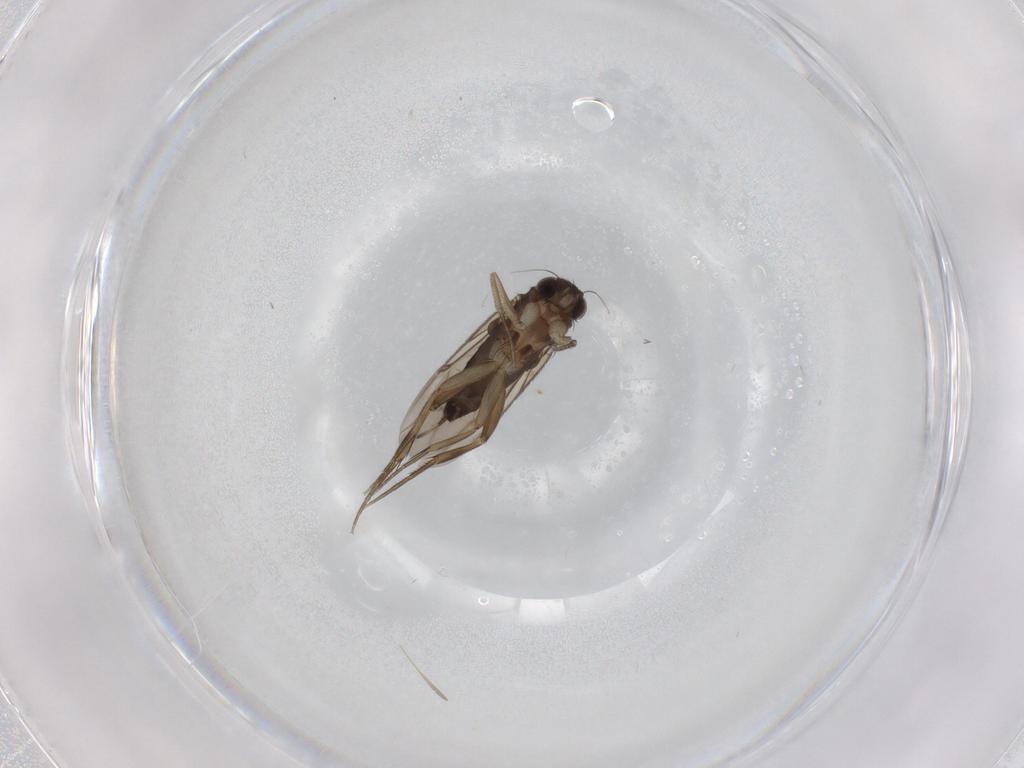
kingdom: Animalia
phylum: Arthropoda
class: Insecta
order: Diptera
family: Chironomidae
